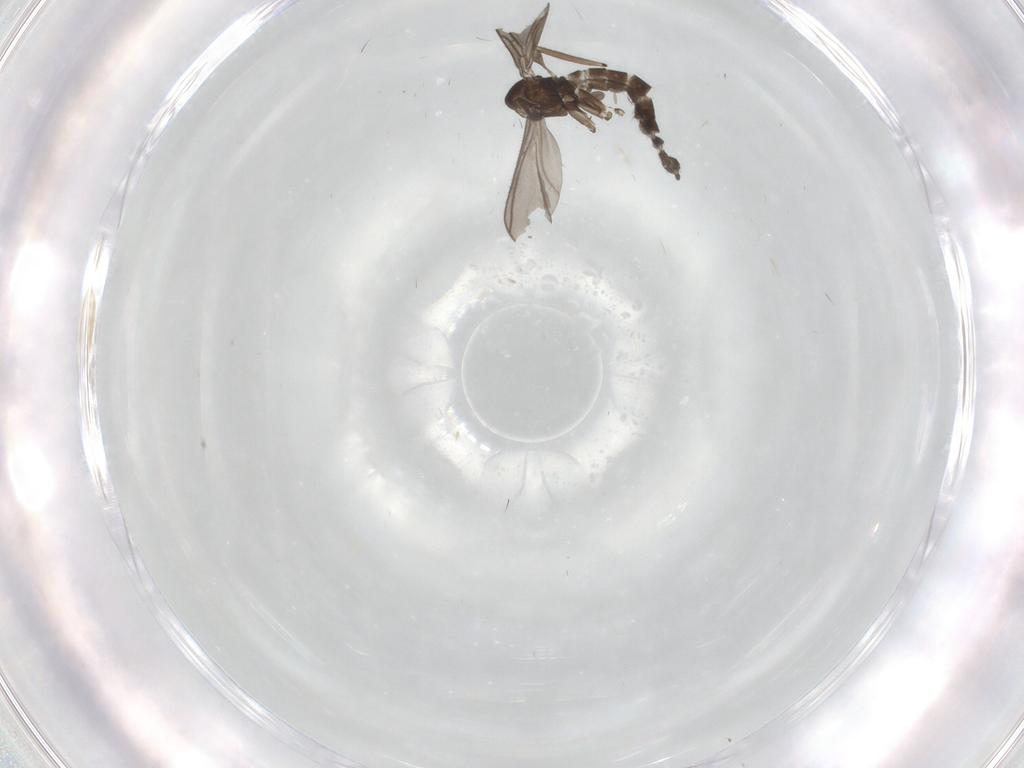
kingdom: Animalia
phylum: Arthropoda
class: Insecta
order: Diptera
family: Sciaridae
